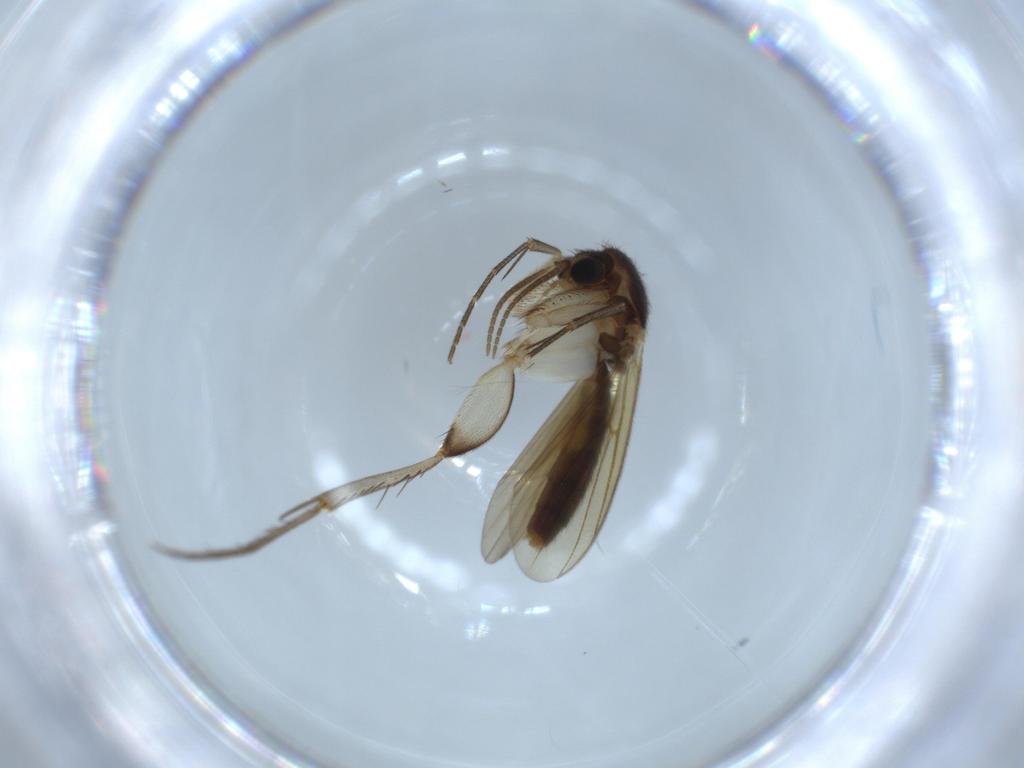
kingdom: Animalia
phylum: Arthropoda
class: Insecta
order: Diptera
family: Mycetophilidae
